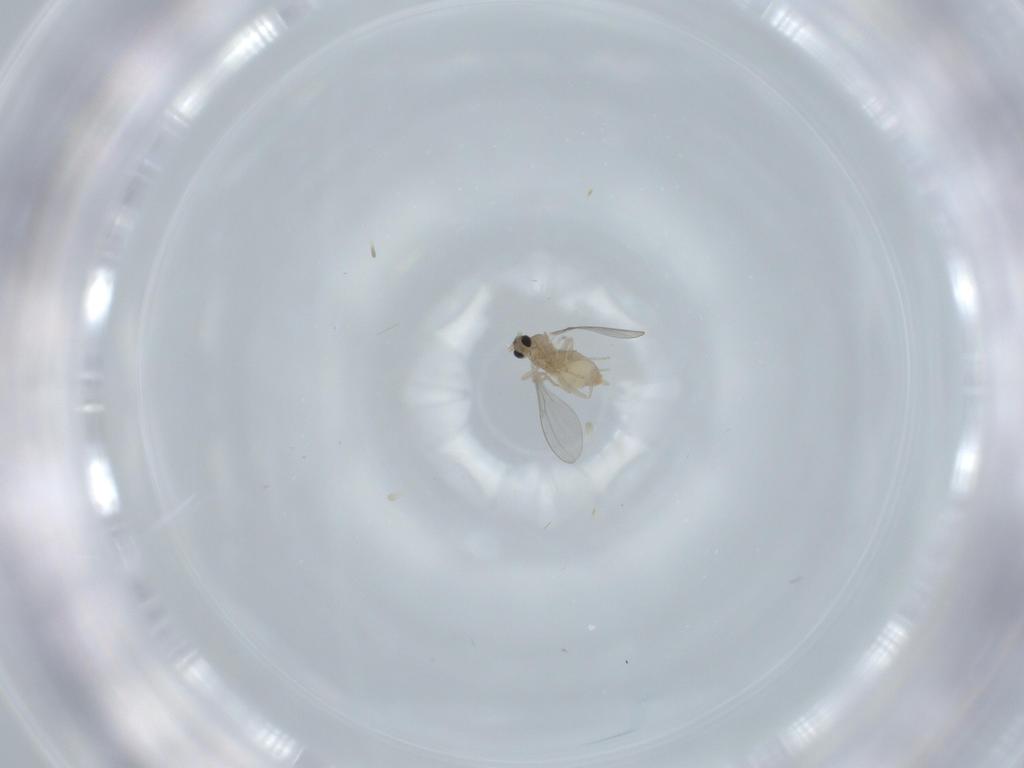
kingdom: Animalia
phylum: Arthropoda
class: Insecta
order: Diptera
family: Cecidomyiidae
